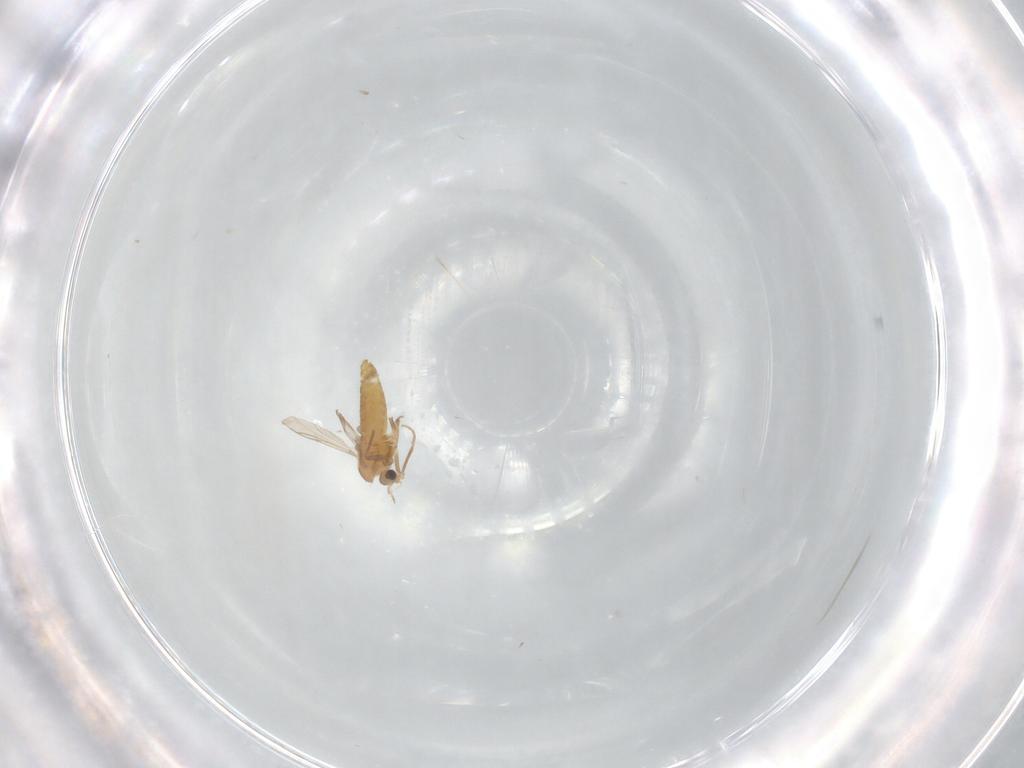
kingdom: Animalia
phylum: Arthropoda
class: Insecta
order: Diptera
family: Chironomidae
